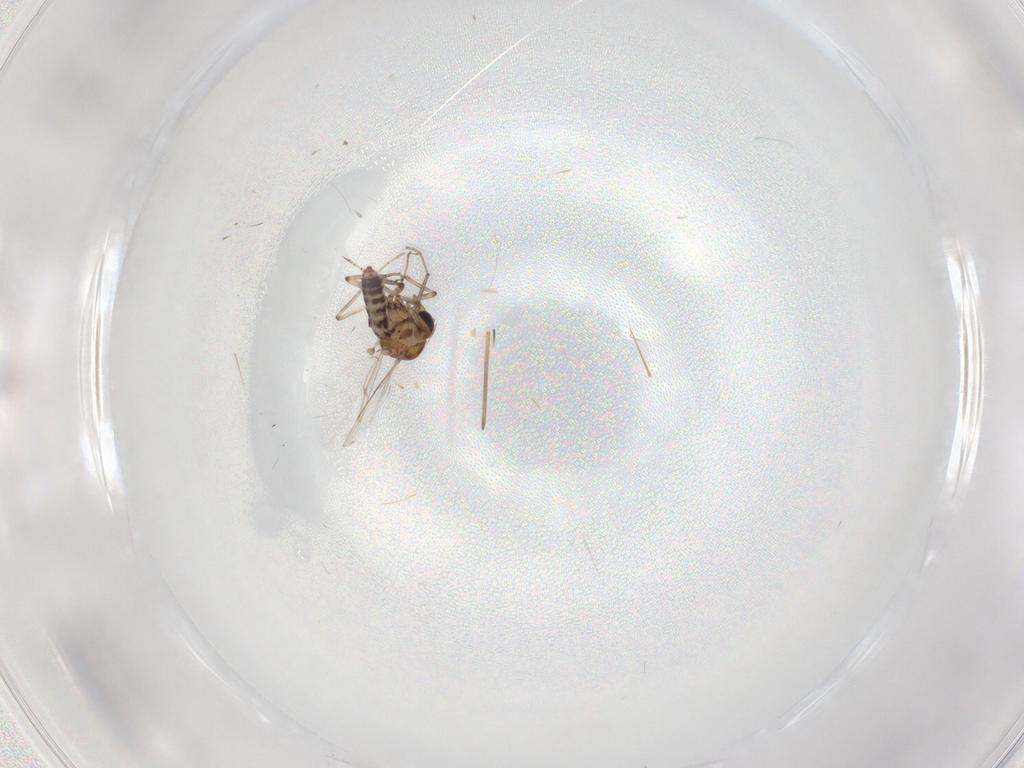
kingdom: Animalia
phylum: Arthropoda
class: Insecta
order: Diptera
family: Ceratopogonidae
